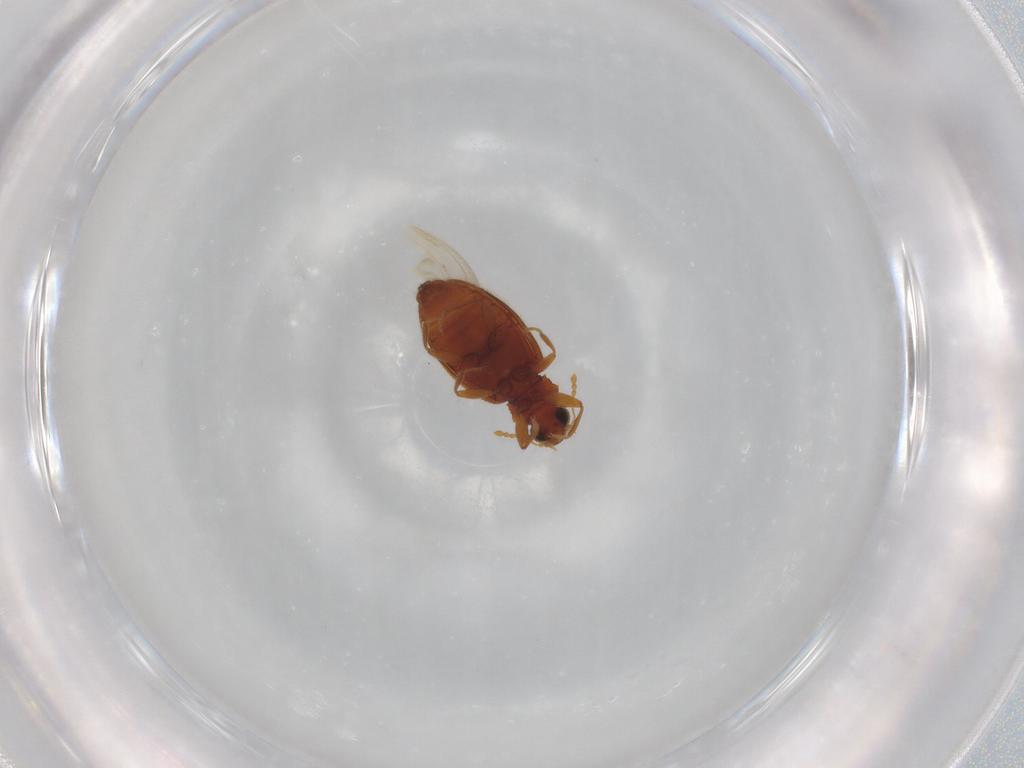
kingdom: Animalia
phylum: Arthropoda
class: Insecta
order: Coleoptera
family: Latridiidae
